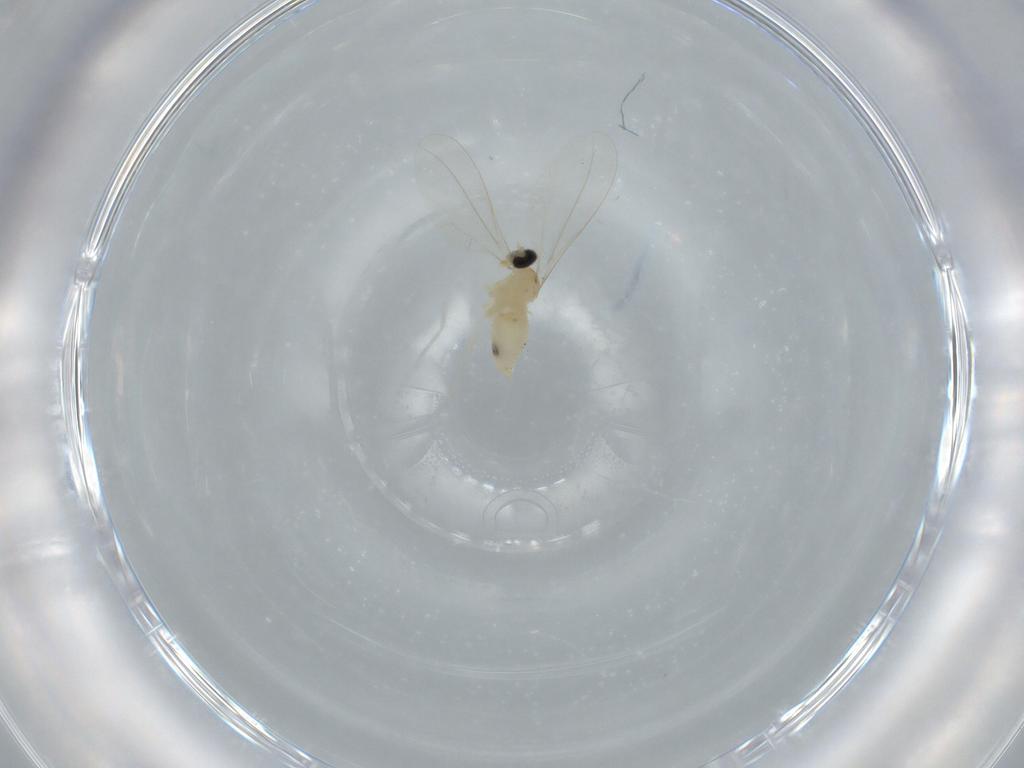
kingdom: Animalia
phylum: Arthropoda
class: Insecta
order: Diptera
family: Cecidomyiidae
